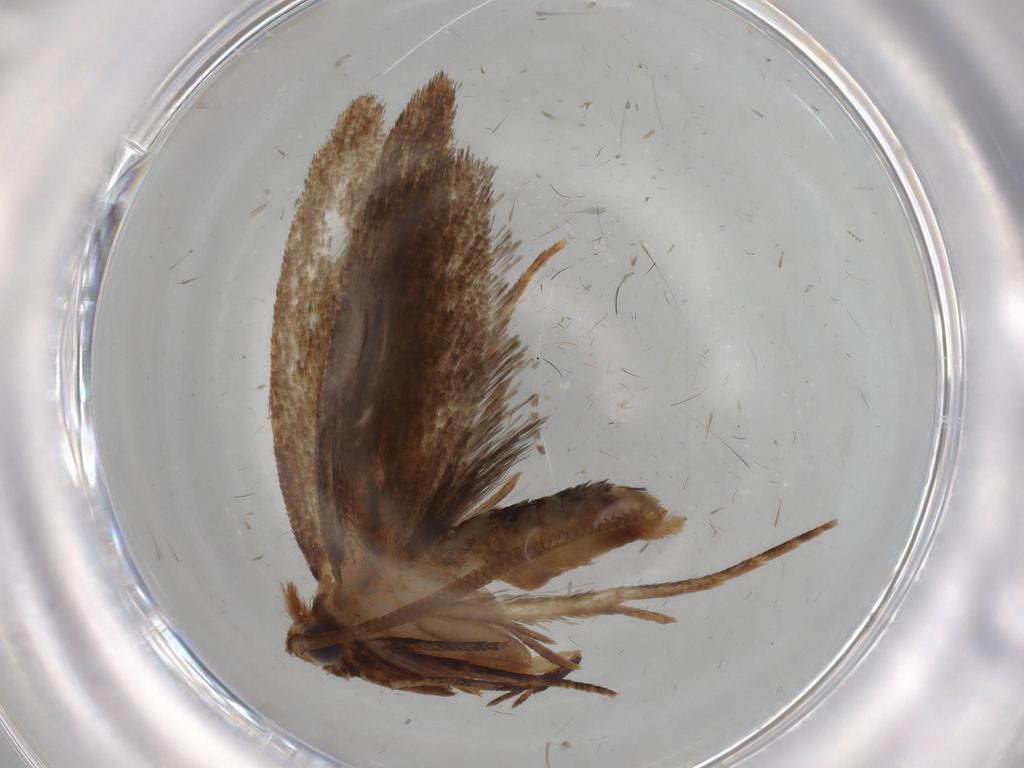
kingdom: Animalia
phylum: Arthropoda
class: Insecta
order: Lepidoptera
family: Tineidae
